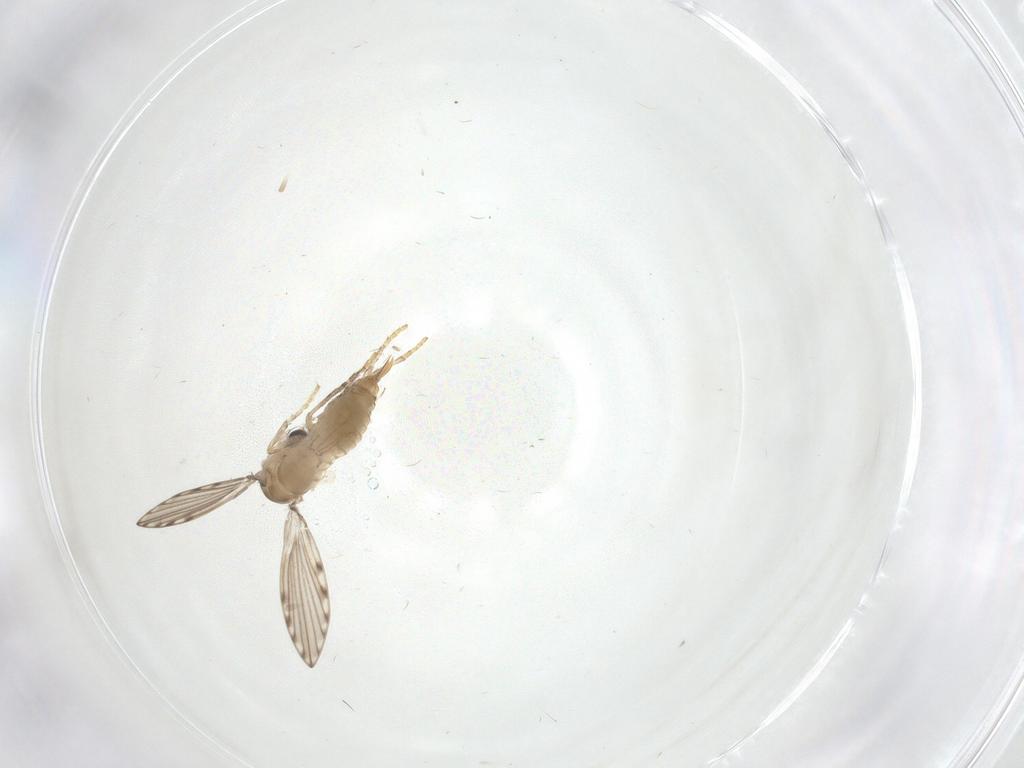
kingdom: Animalia
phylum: Arthropoda
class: Insecta
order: Diptera
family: Psychodidae
